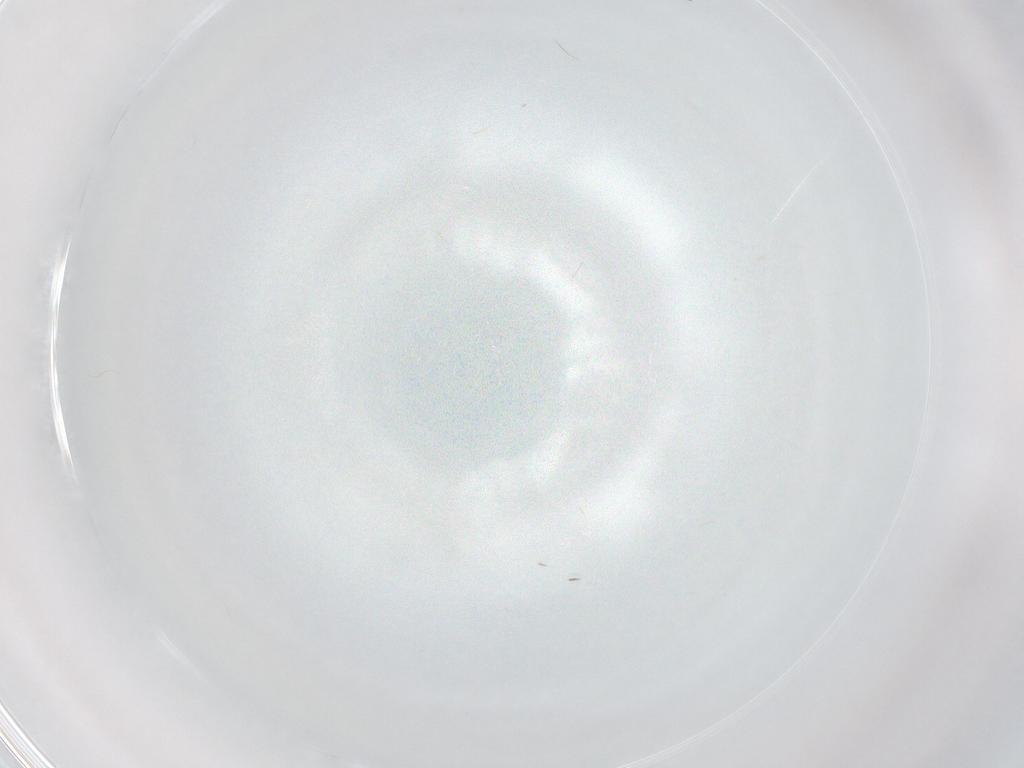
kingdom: Animalia
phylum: Arthropoda
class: Insecta
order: Diptera
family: Cecidomyiidae
